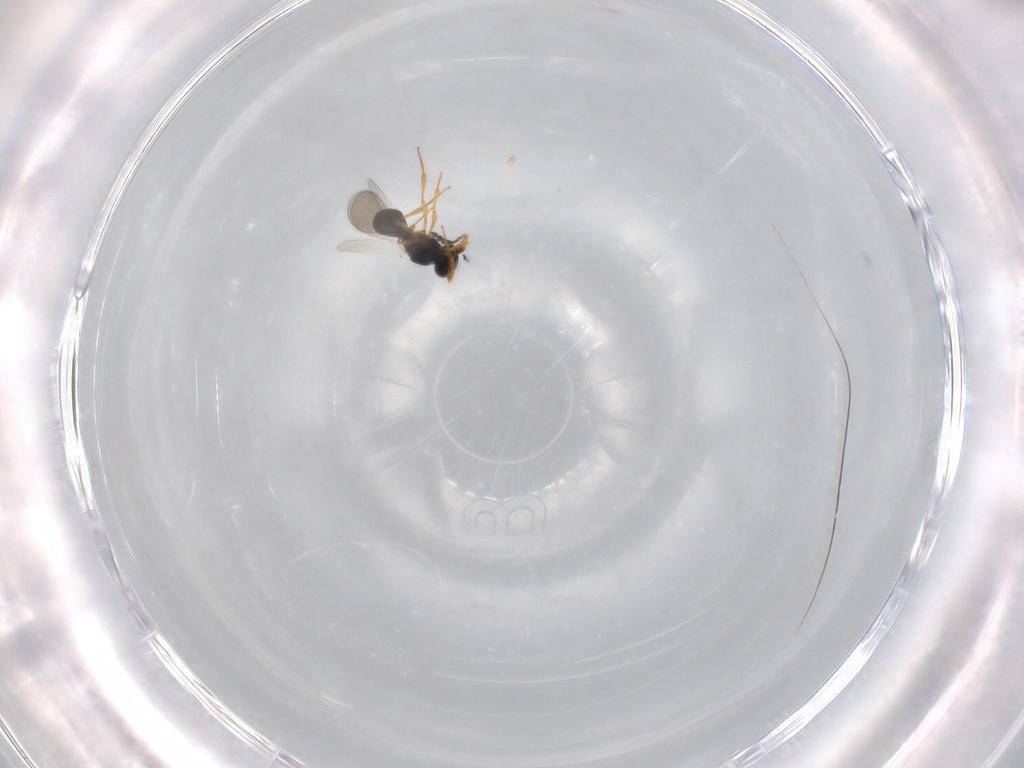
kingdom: Animalia
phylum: Arthropoda
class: Insecta
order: Hymenoptera
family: Platygastridae
